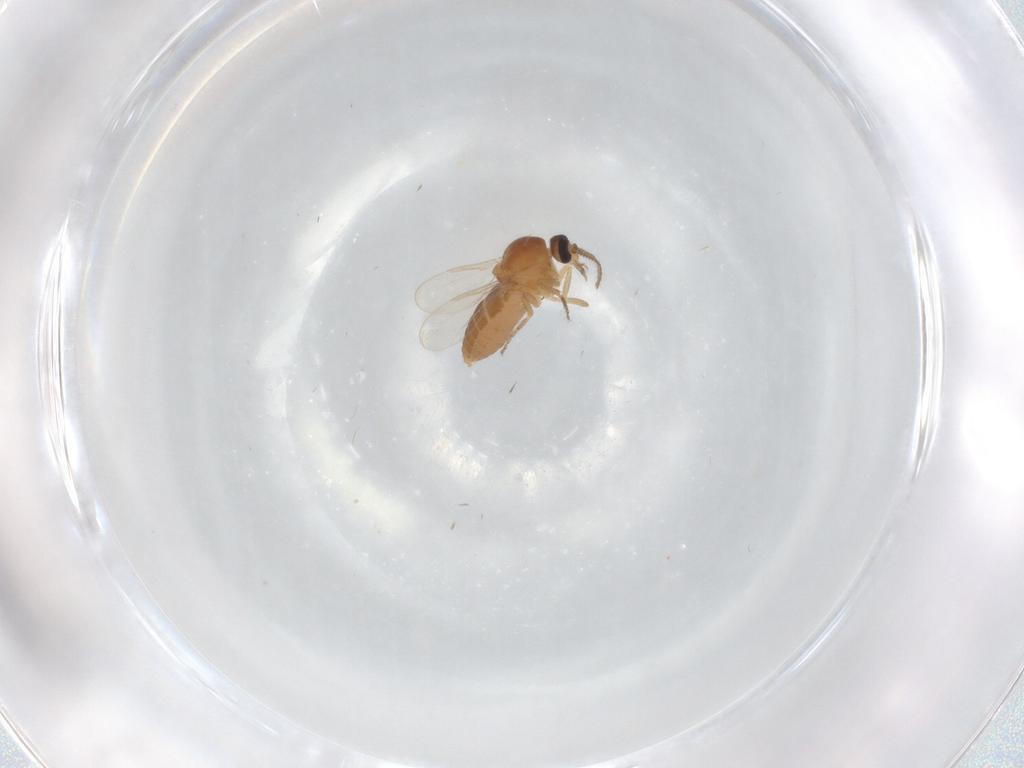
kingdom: Animalia
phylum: Arthropoda
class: Insecta
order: Diptera
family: Ceratopogonidae
